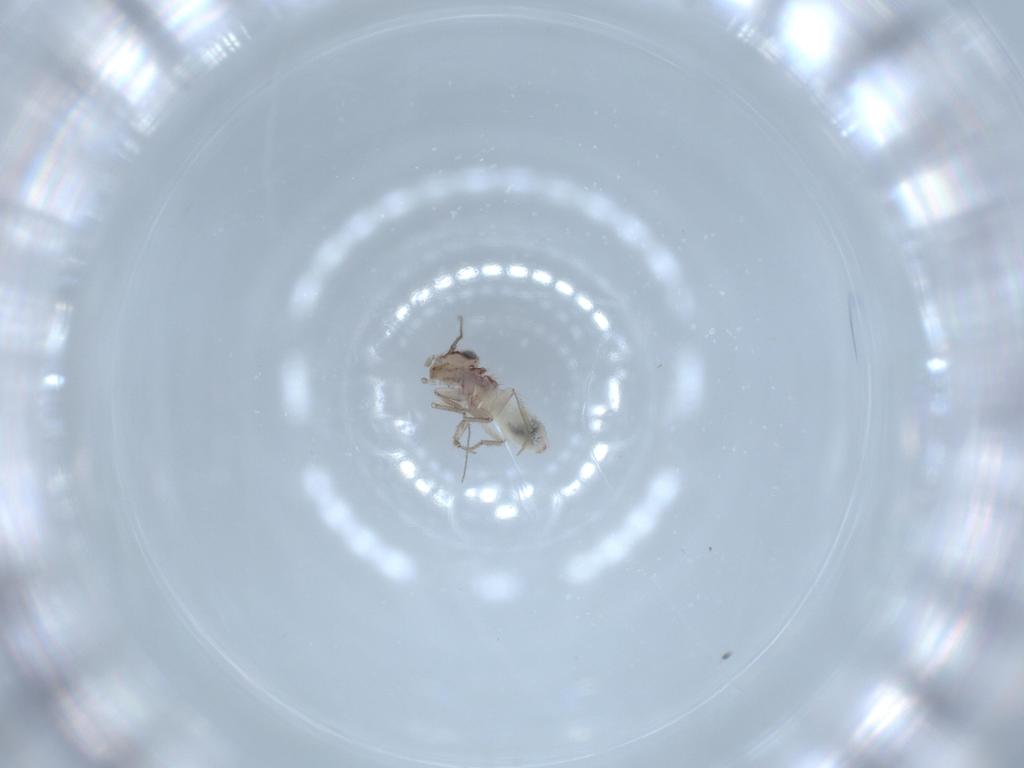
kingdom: Animalia
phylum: Arthropoda
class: Insecta
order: Psocodea
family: Lepidopsocidae
